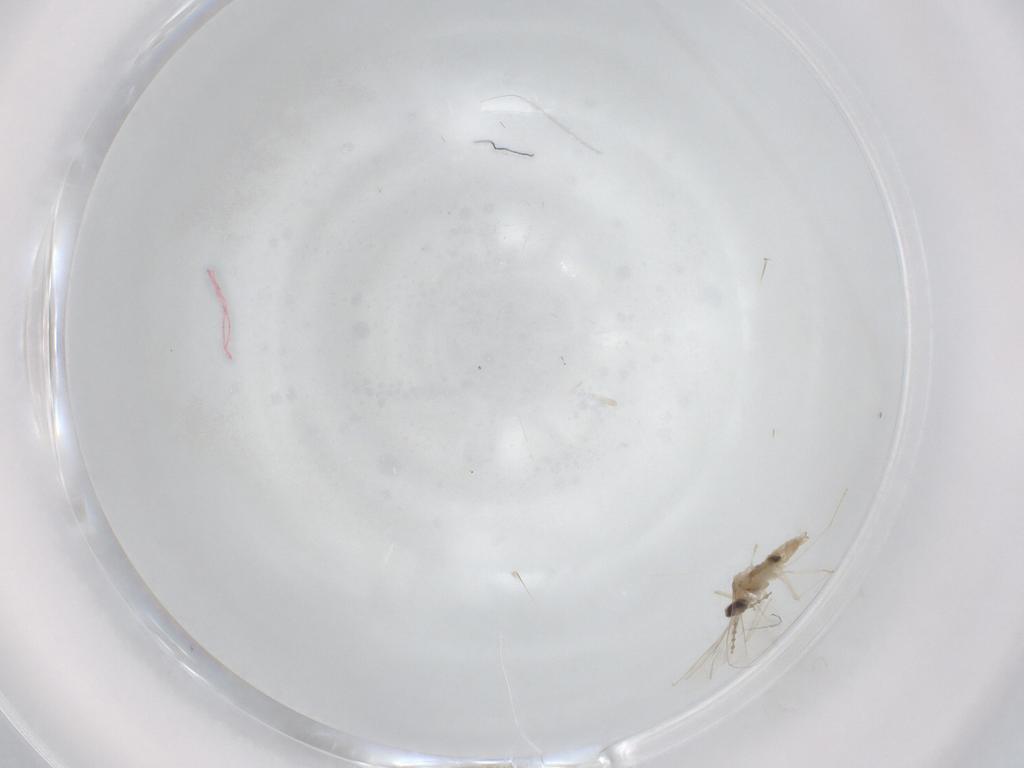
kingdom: Animalia
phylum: Arthropoda
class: Insecta
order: Diptera
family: Cecidomyiidae
